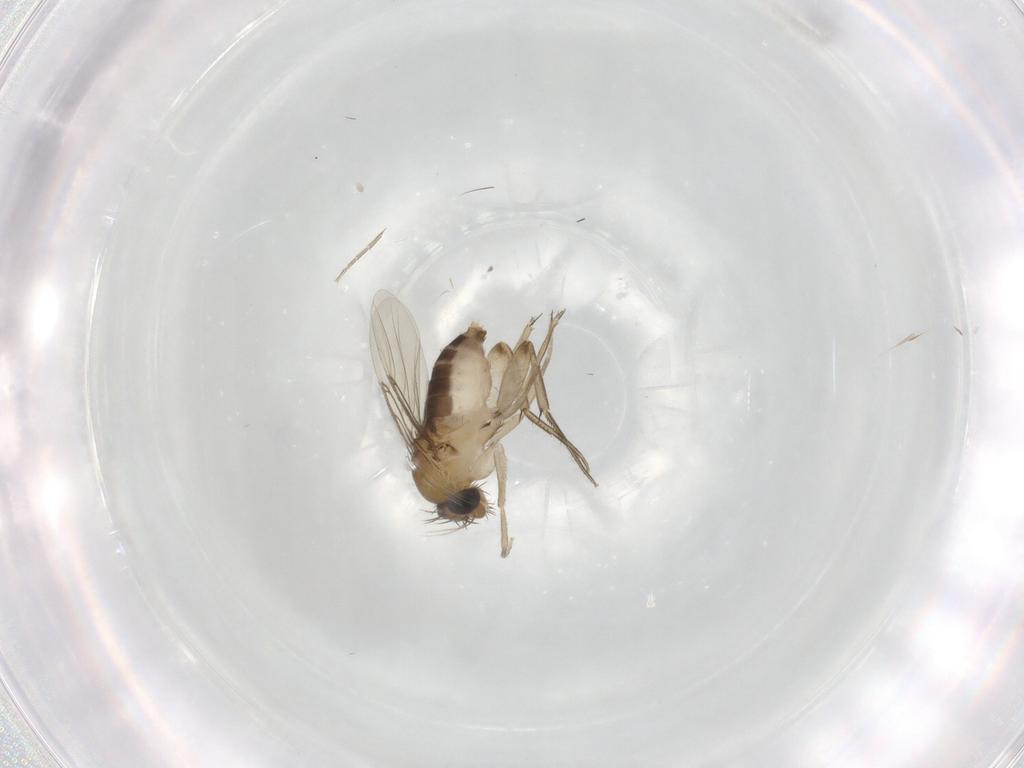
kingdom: Animalia
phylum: Arthropoda
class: Insecta
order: Diptera
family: Phoridae
